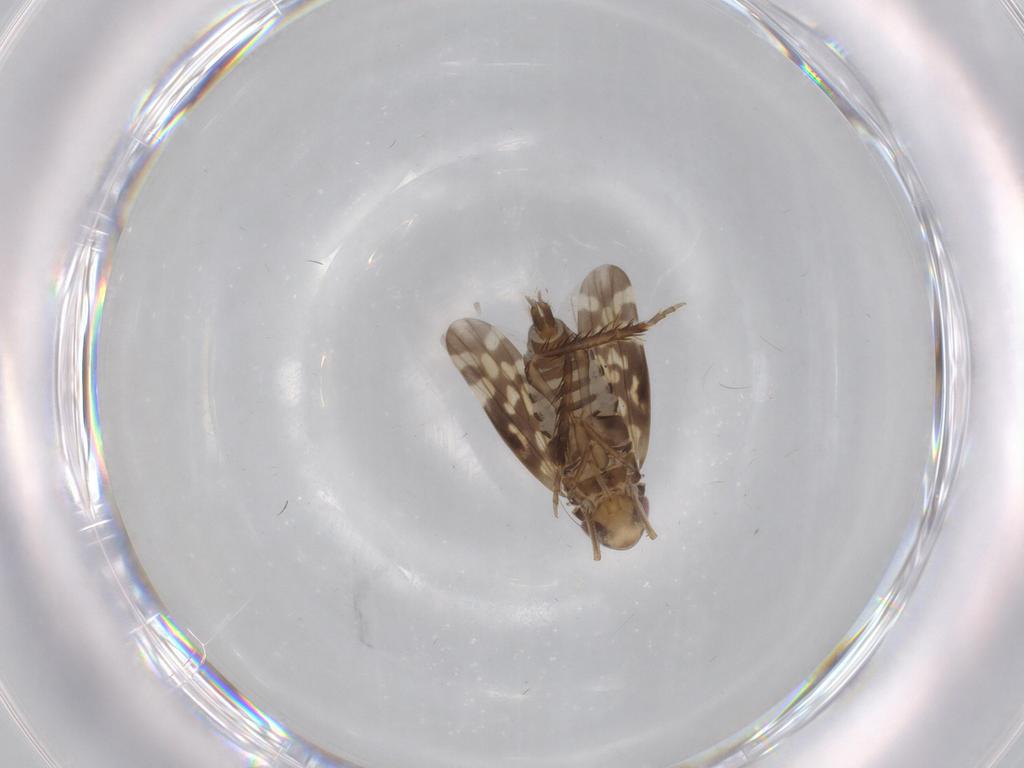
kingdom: Animalia
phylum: Arthropoda
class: Insecta
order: Hemiptera
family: Cicadellidae
